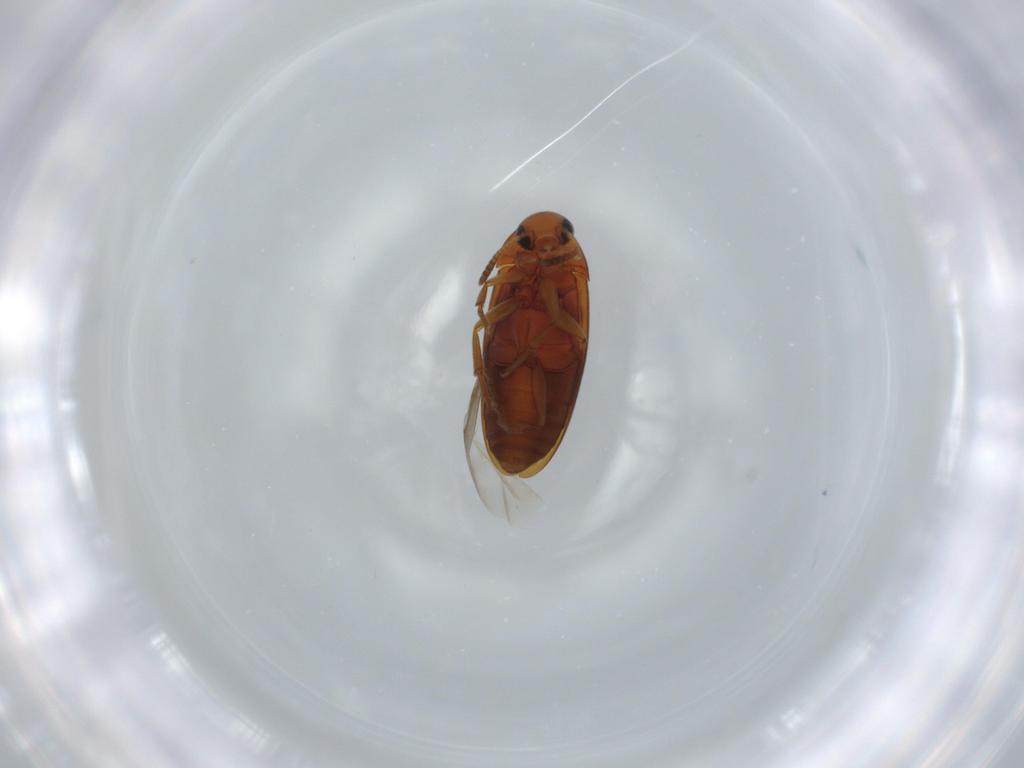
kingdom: Animalia
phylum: Arthropoda
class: Insecta
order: Coleoptera
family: Scraptiidae
